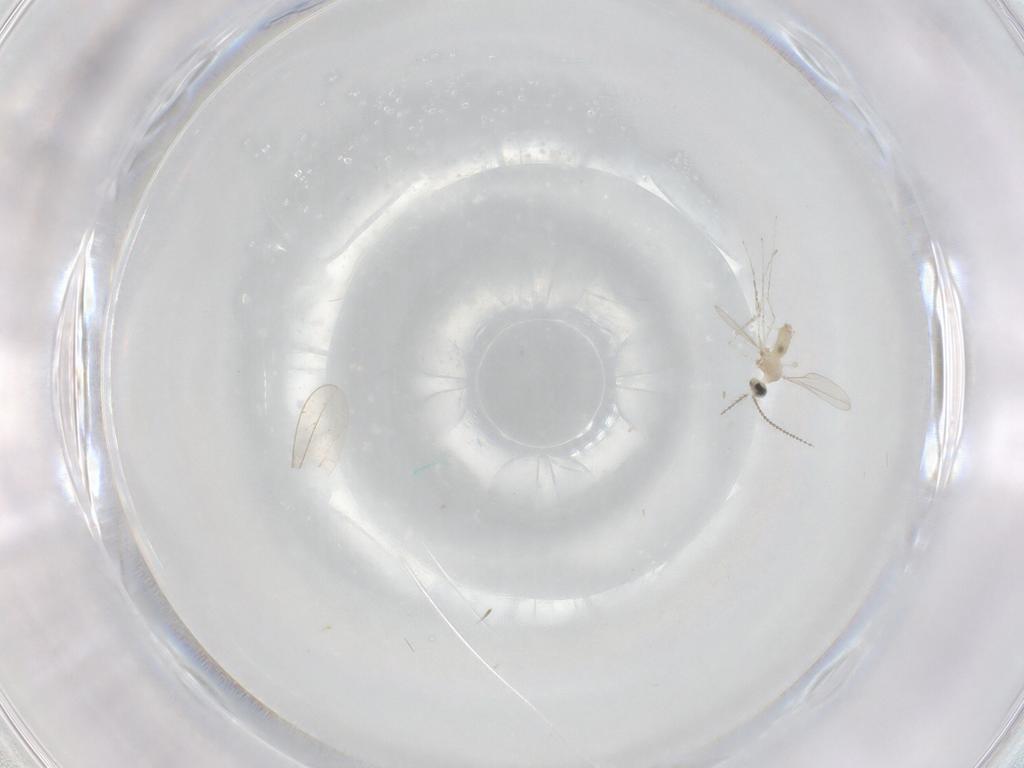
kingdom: Animalia
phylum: Arthropoda
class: Insecta
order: Diptera
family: Cecidomyiidae
